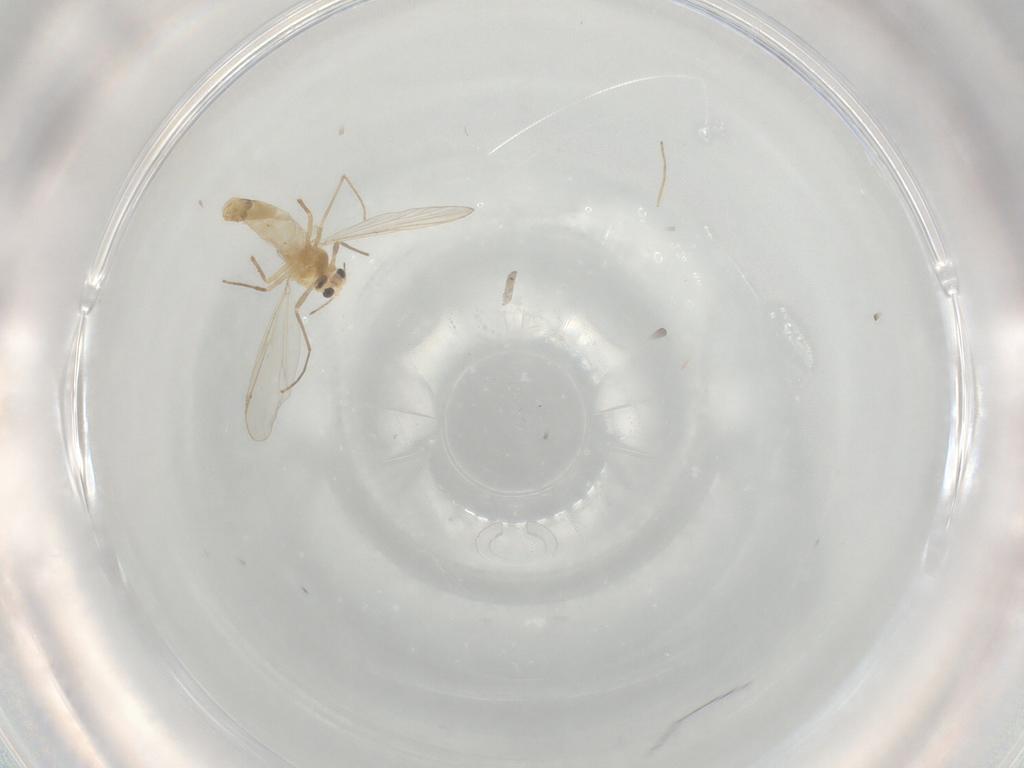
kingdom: Animalia
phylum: Arthropoda
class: Insecta
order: Diptera
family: Chironomidae
